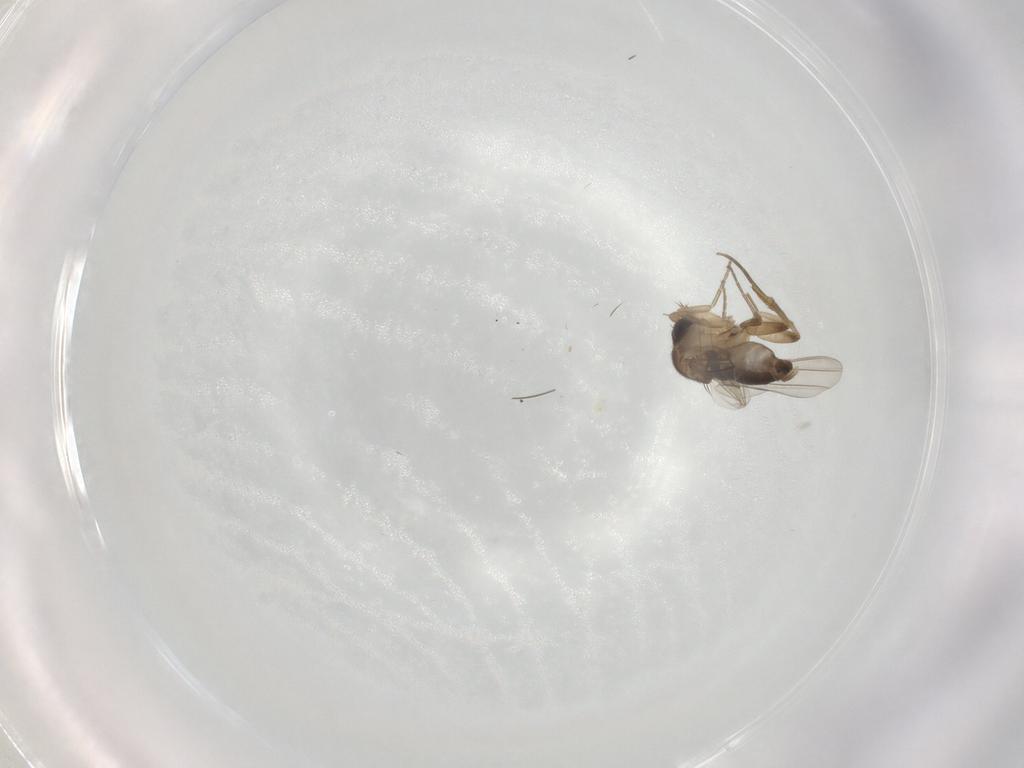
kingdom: Animalia
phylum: Arthropoda
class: Insecta
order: Diptera
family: Phoridae
